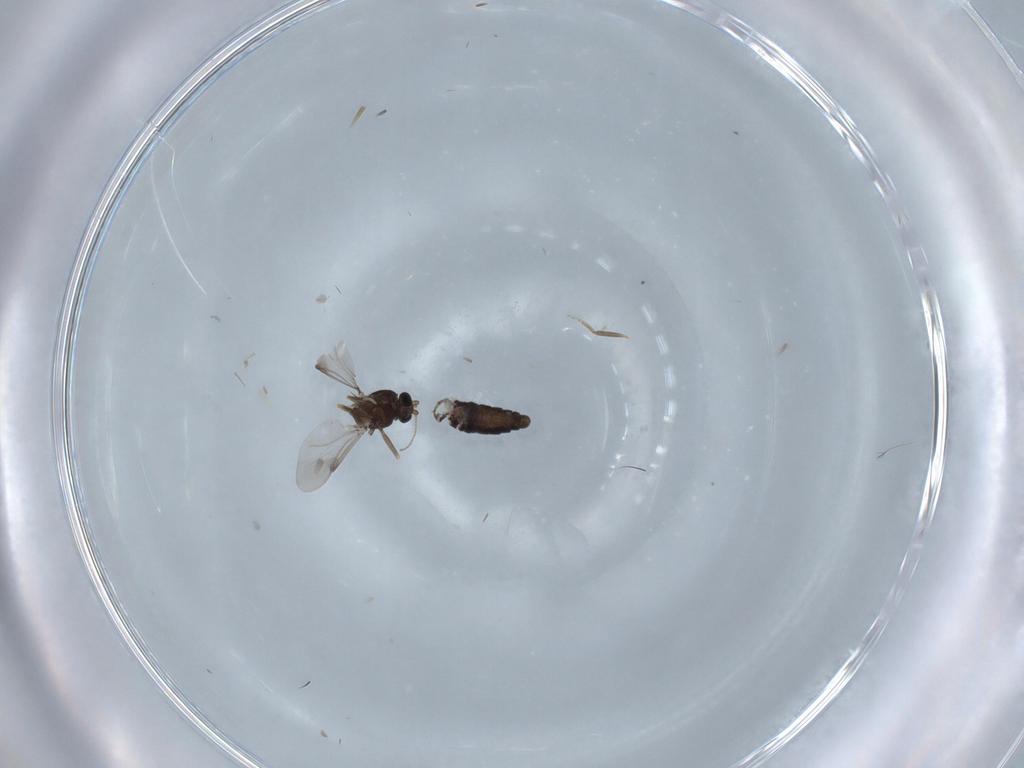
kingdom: Animalia
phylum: Arthropoda
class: Insecta
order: Diptera
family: Ceratopogonidae
